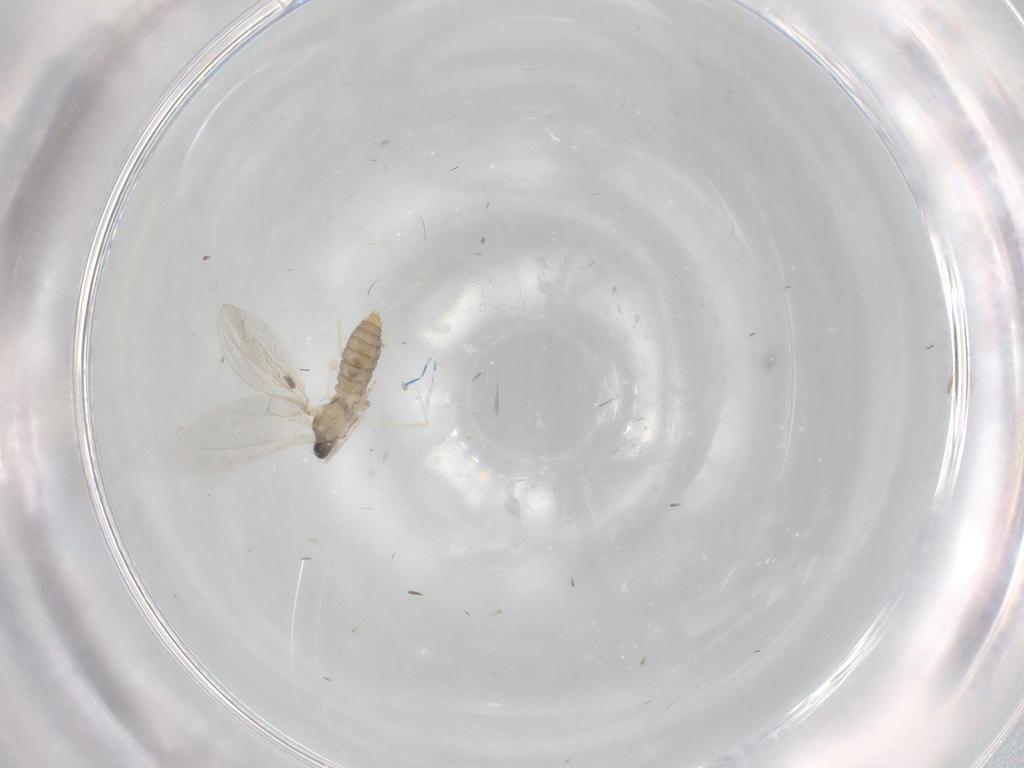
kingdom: Animalia
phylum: Arthropoda
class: Insecta
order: Diptera
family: Cecidomyiidae
